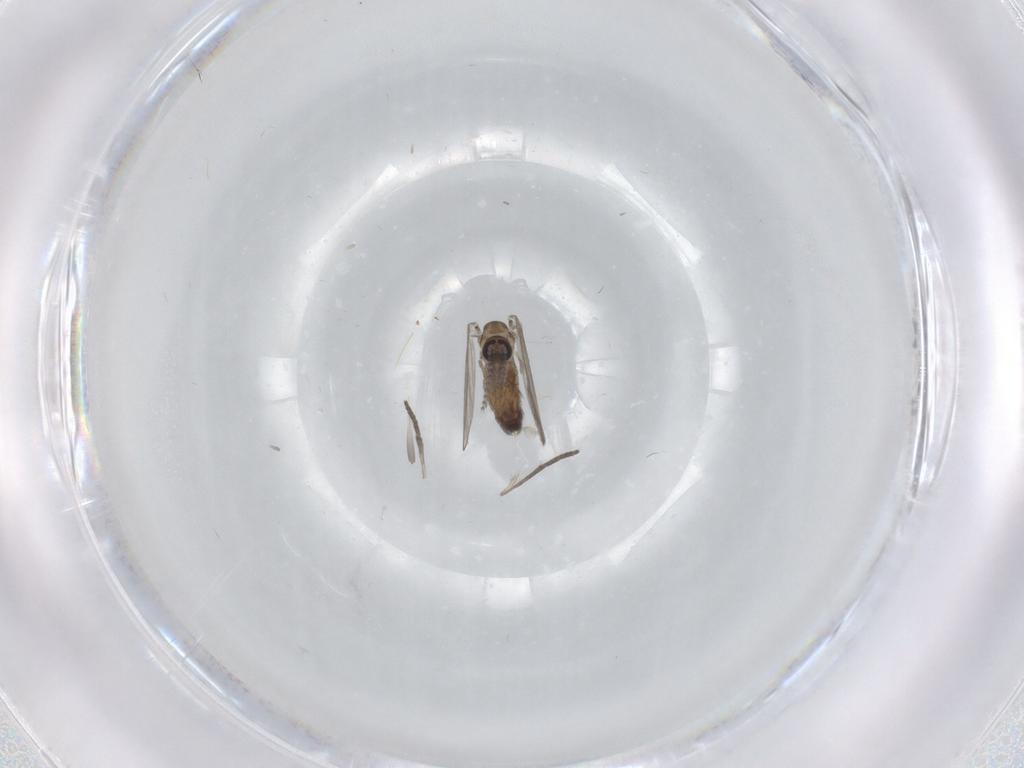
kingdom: Animalia
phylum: Arthropoda
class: Insecta
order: Diptera
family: Psychodidae
